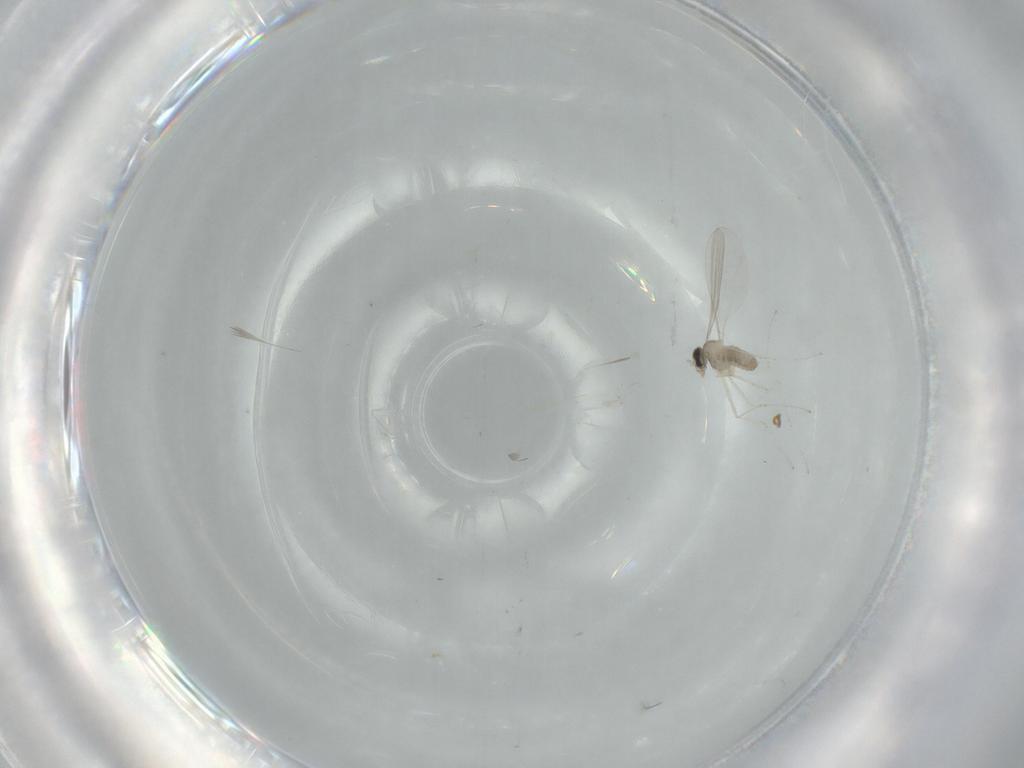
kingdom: Animalia
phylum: Arthropoda
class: Insecta
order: Diptera
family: Cecidomyiidae
